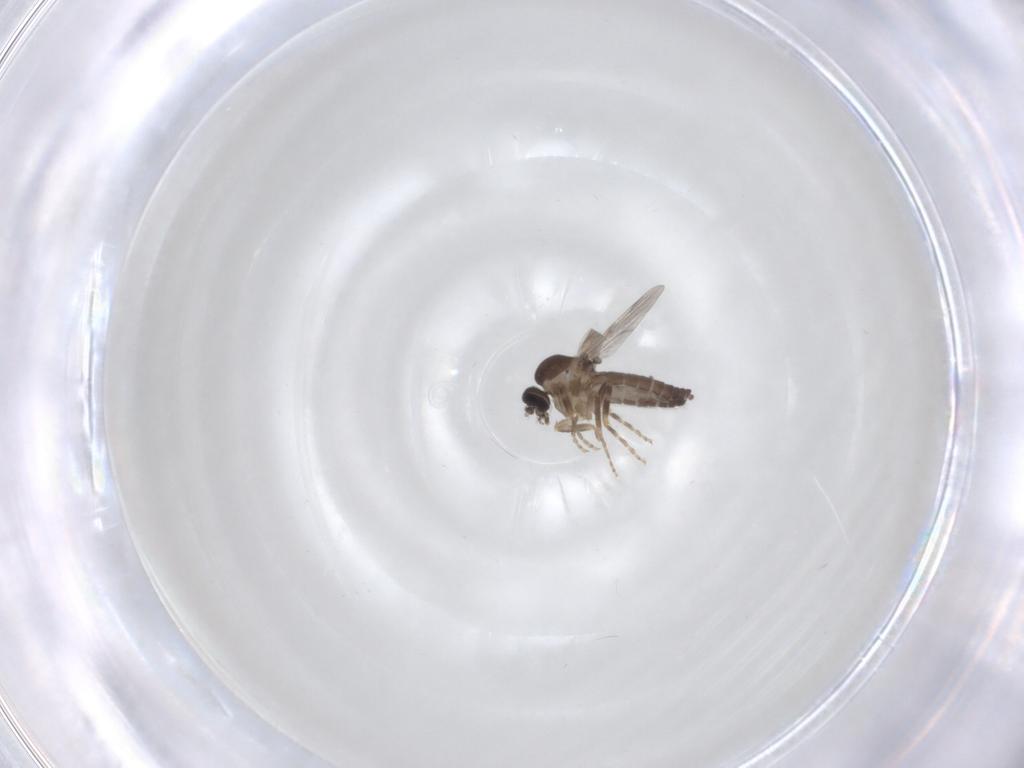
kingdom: Animalia
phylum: Arthropoda
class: Insecta
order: Diptera
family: Ceratopogonidae
